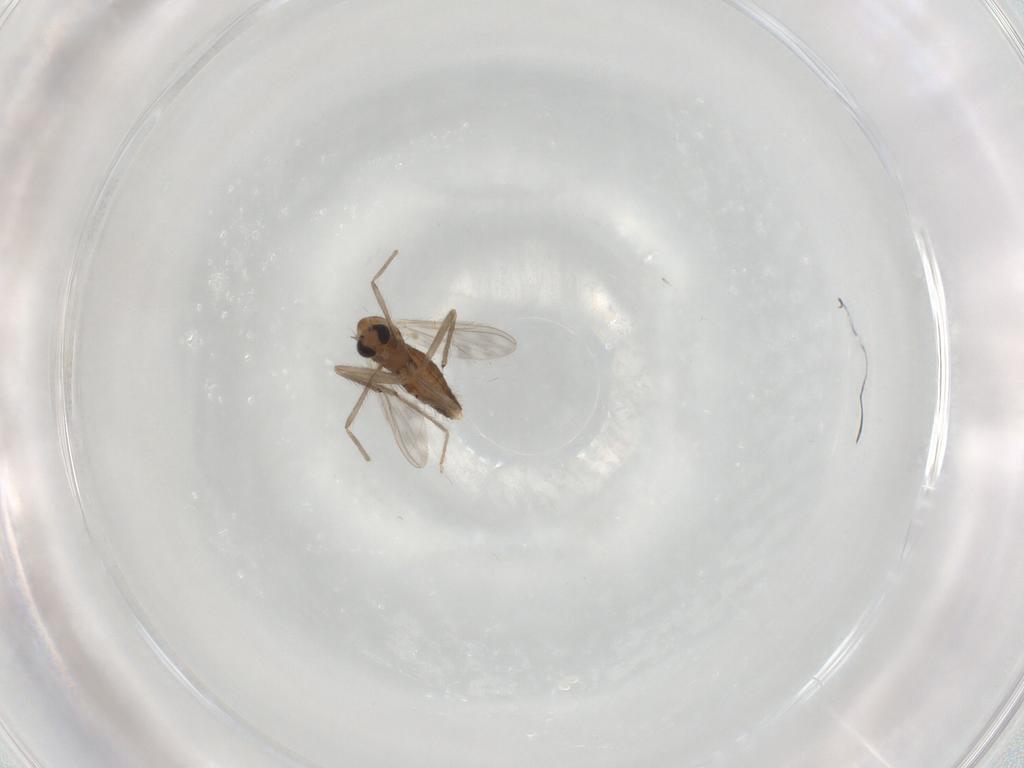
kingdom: Animalia
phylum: Arthropoda
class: Insecta
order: Diptera
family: Chironomidae
